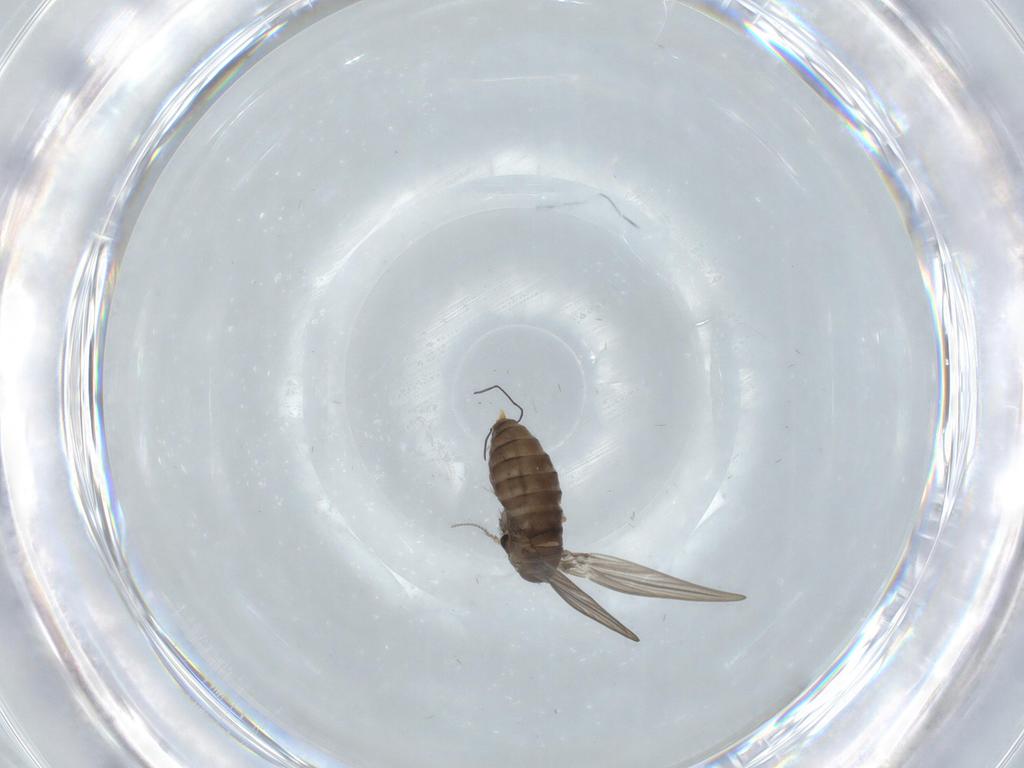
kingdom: Animalia
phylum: Arthropoda
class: Insecta
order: Diptera
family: Psychodidae
